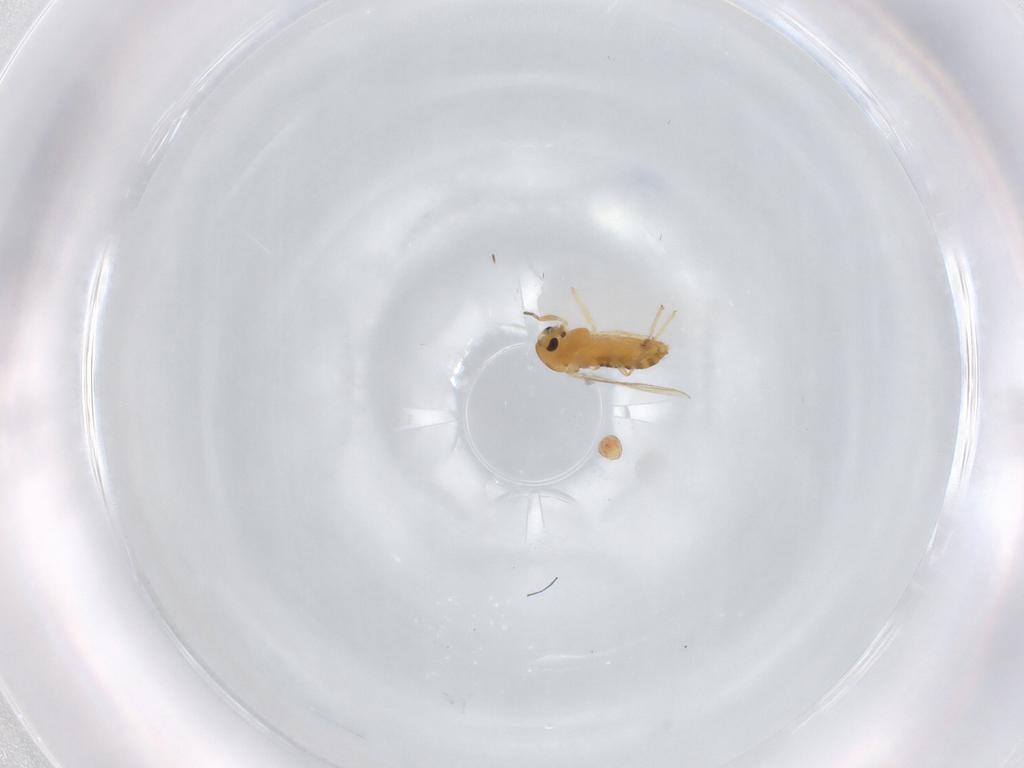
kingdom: Animalia
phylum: Arthropoda
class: Insecta
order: Diptera
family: Chironomidae
